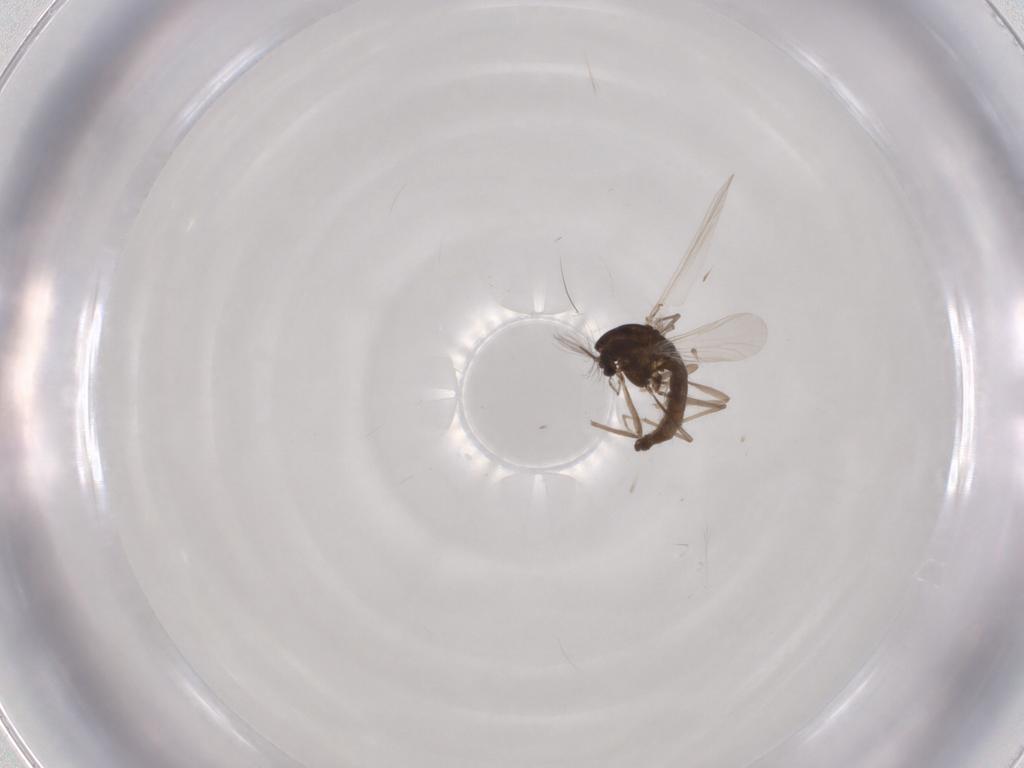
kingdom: Animalia
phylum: Arthropoda
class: Insecta
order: Diptera
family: Chironomidae
